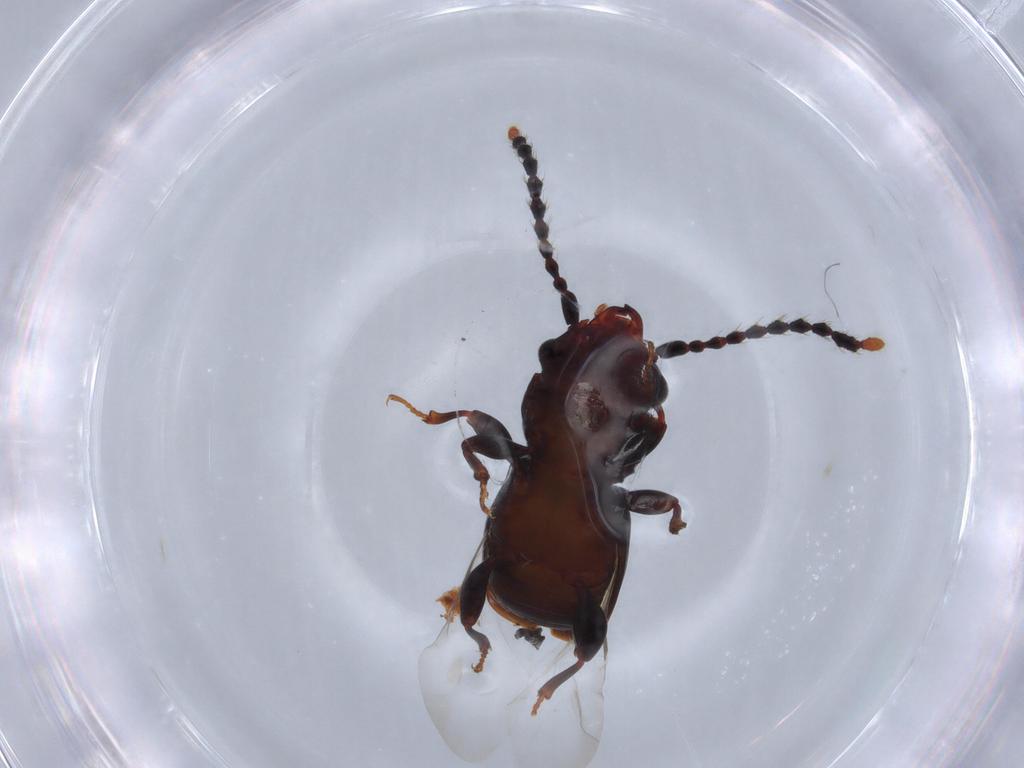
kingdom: Animalia
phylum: Arthropoda
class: Insecta
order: Coleoptera
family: Laemophloeidae
